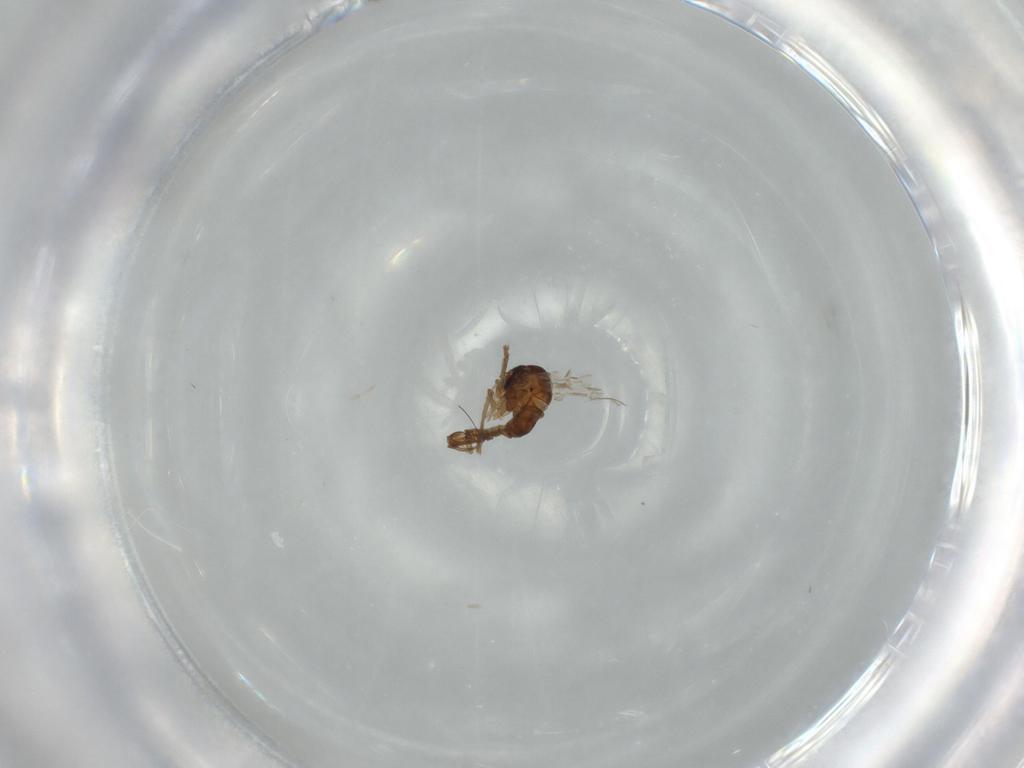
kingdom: Animalia
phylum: Arthropoda
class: Insecta
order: Diptera
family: Psychodidae
